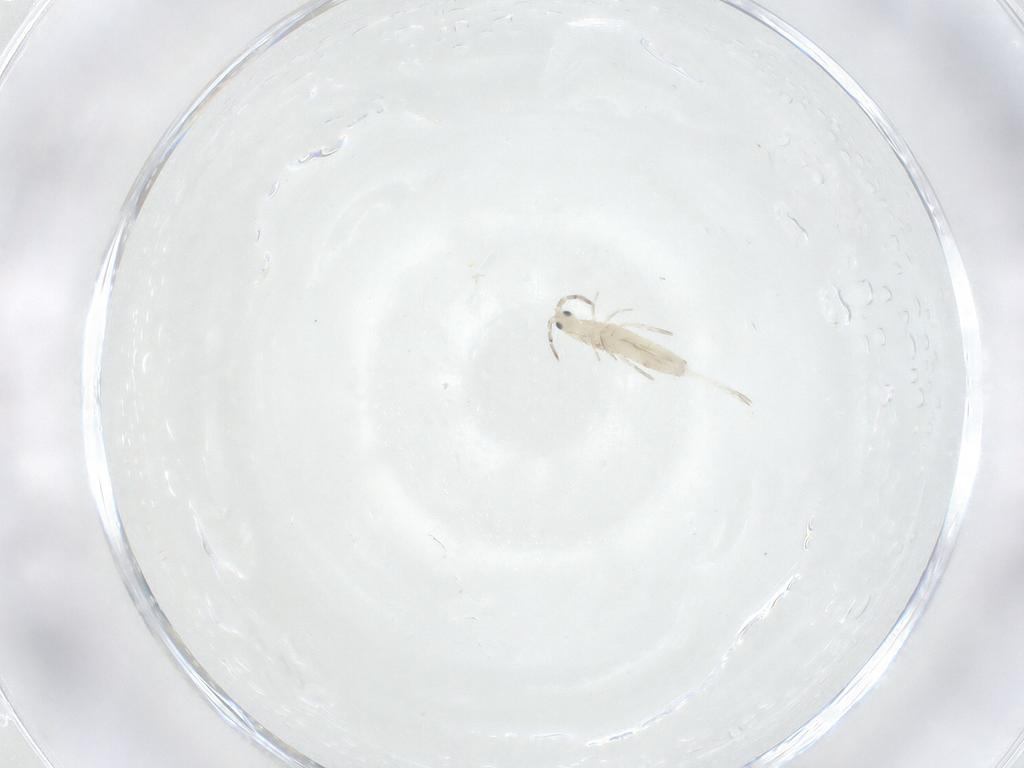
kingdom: Animalia
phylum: Arthropoda
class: Collembola
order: Entomobryomorpha
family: Entomobryidae
